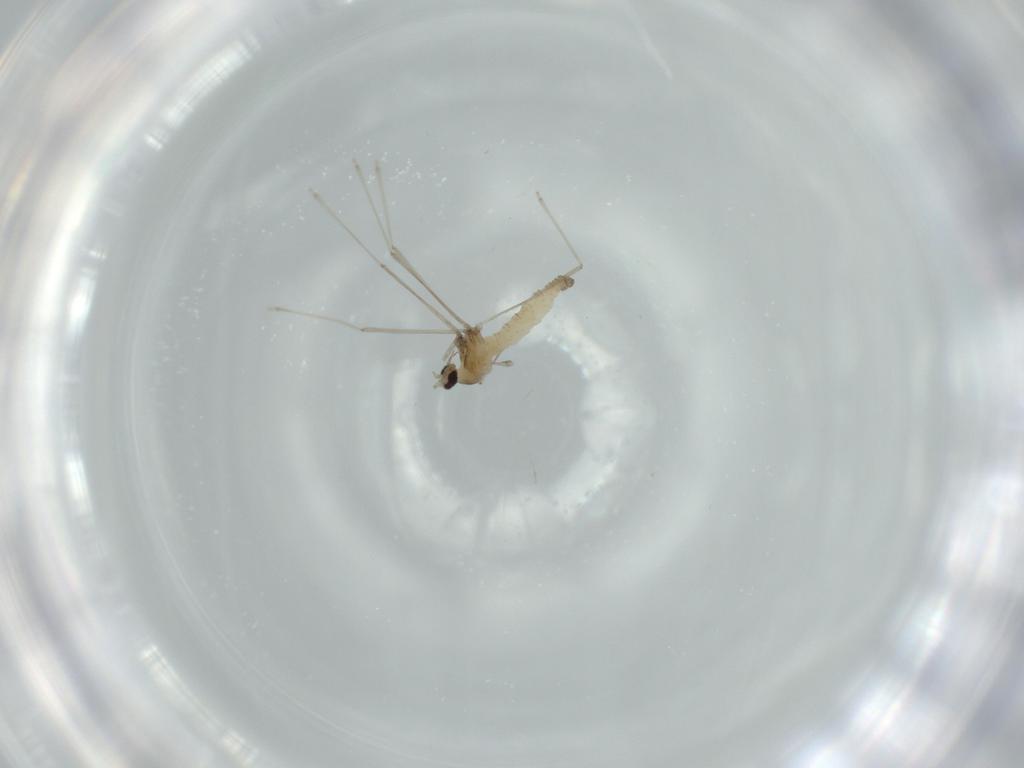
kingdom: Animalia
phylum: Arthropoda
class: Insecta
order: Diptera
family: Cecidomyiidae
